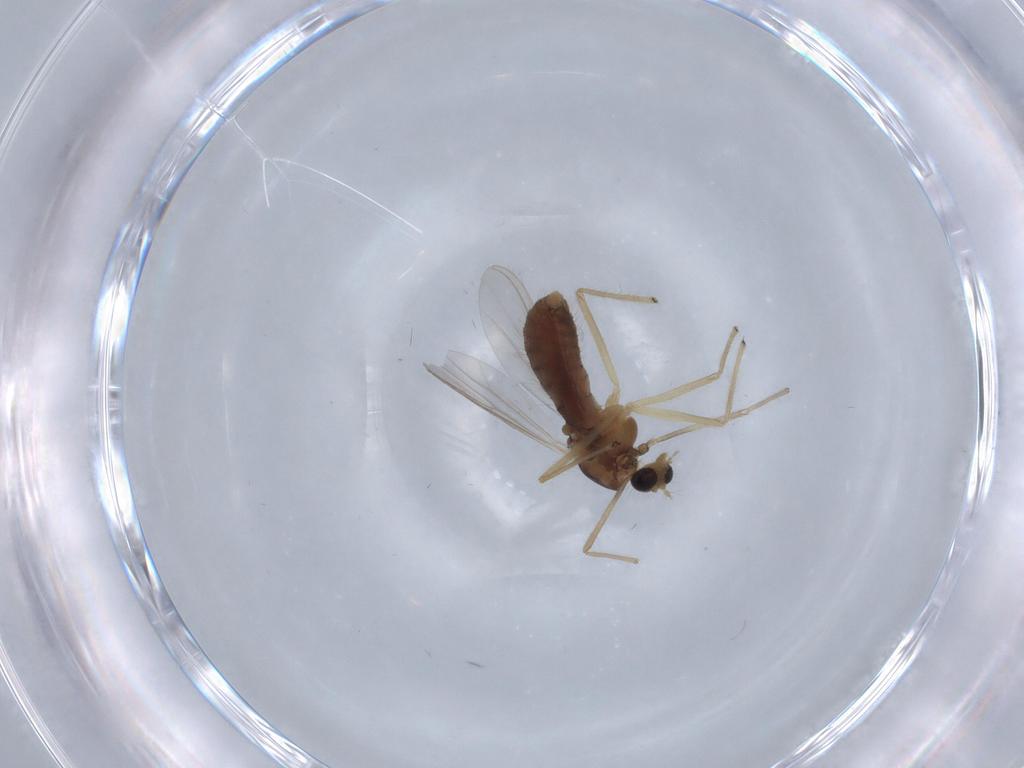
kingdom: Animalia
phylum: Arthropoda
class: Insecta
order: Diptera
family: Chironomidae
